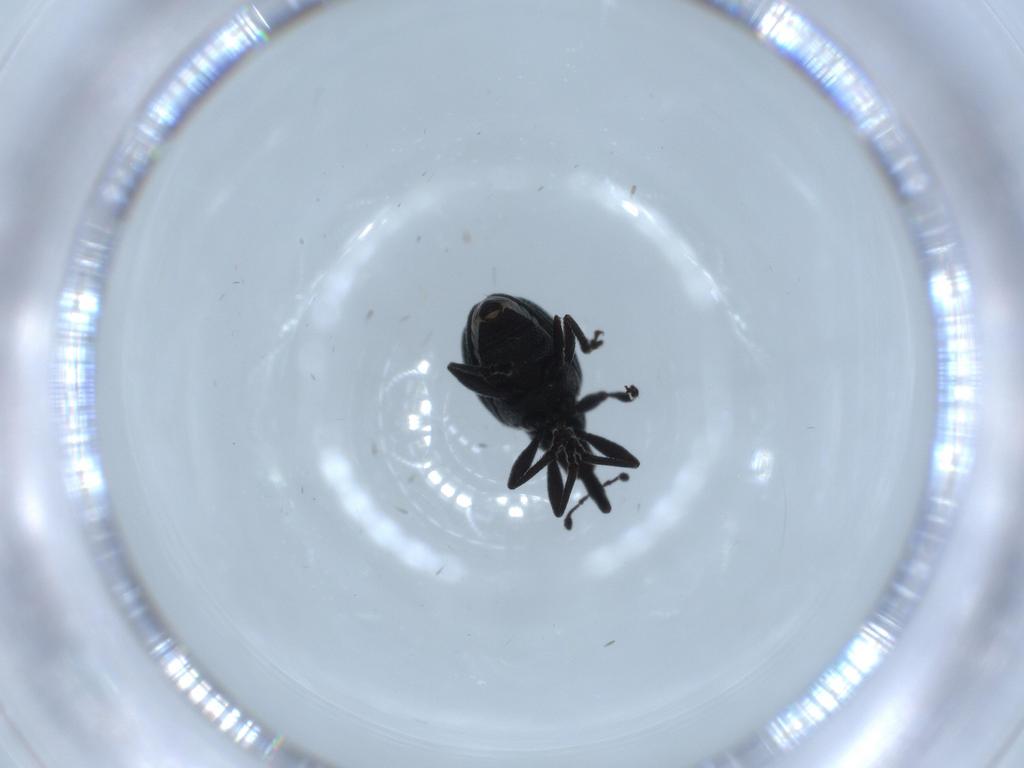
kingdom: Animalia
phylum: Arthropoda
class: Insecta
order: Coleoptera
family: Brentidae
